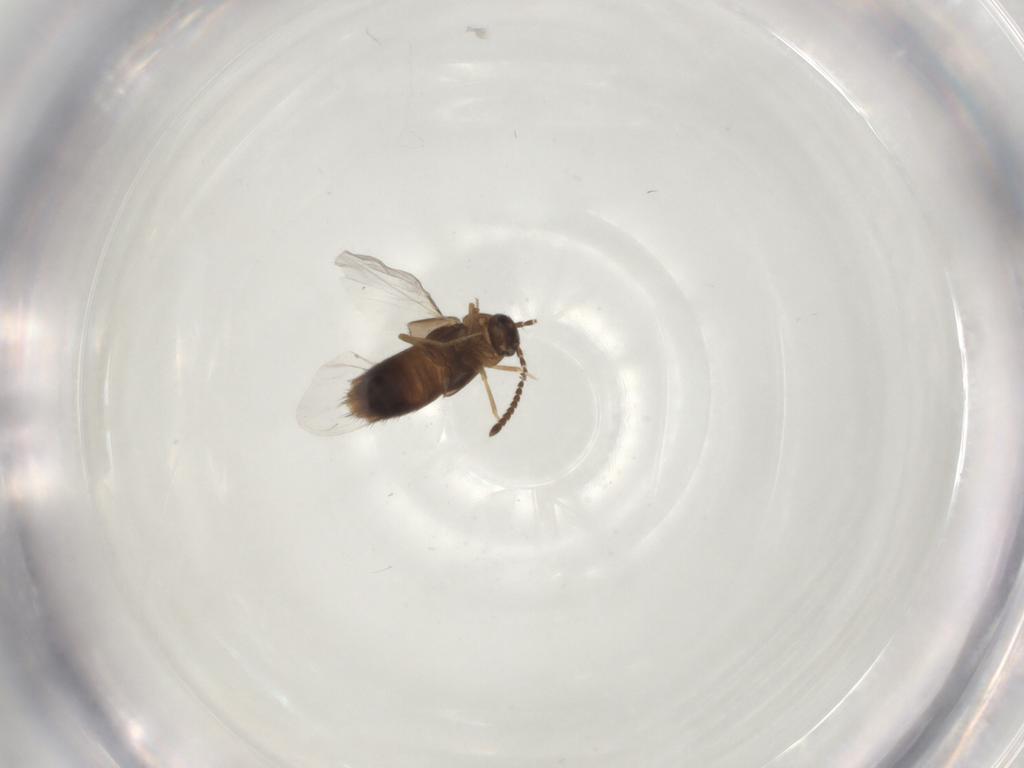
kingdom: Animalia
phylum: Arthropoda
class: Insecta
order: Coleoptera
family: Staphylinidae
